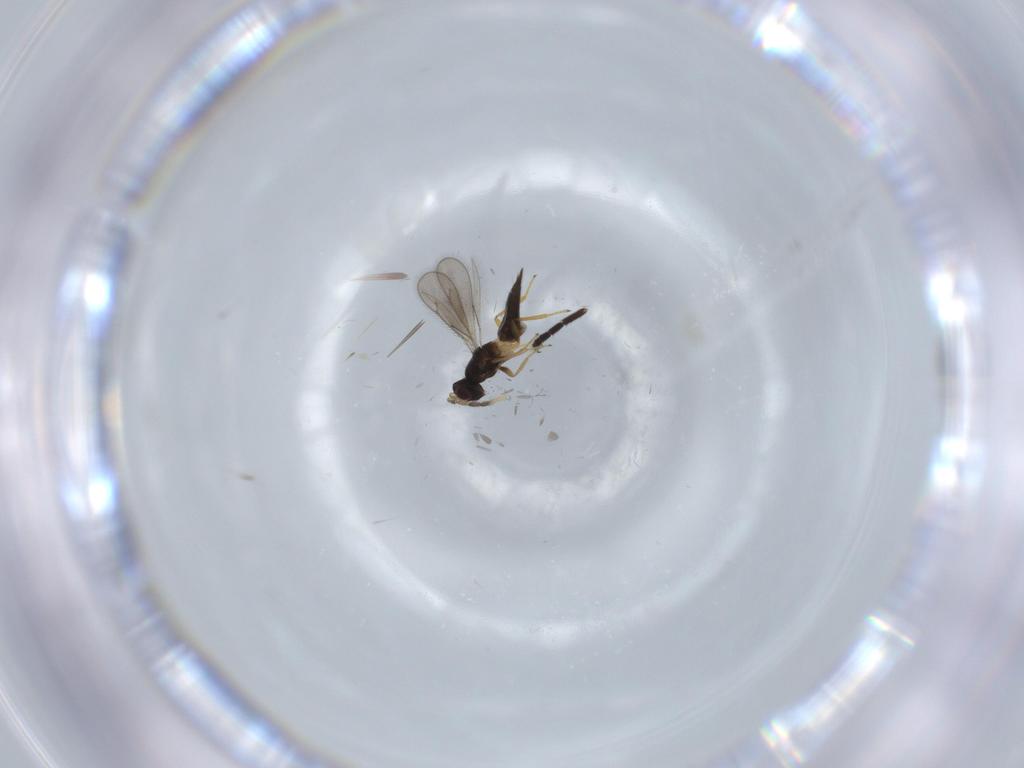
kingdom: Animalia
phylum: Arthropoda
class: Insecta
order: Hymenoptera
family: Eulophidae
